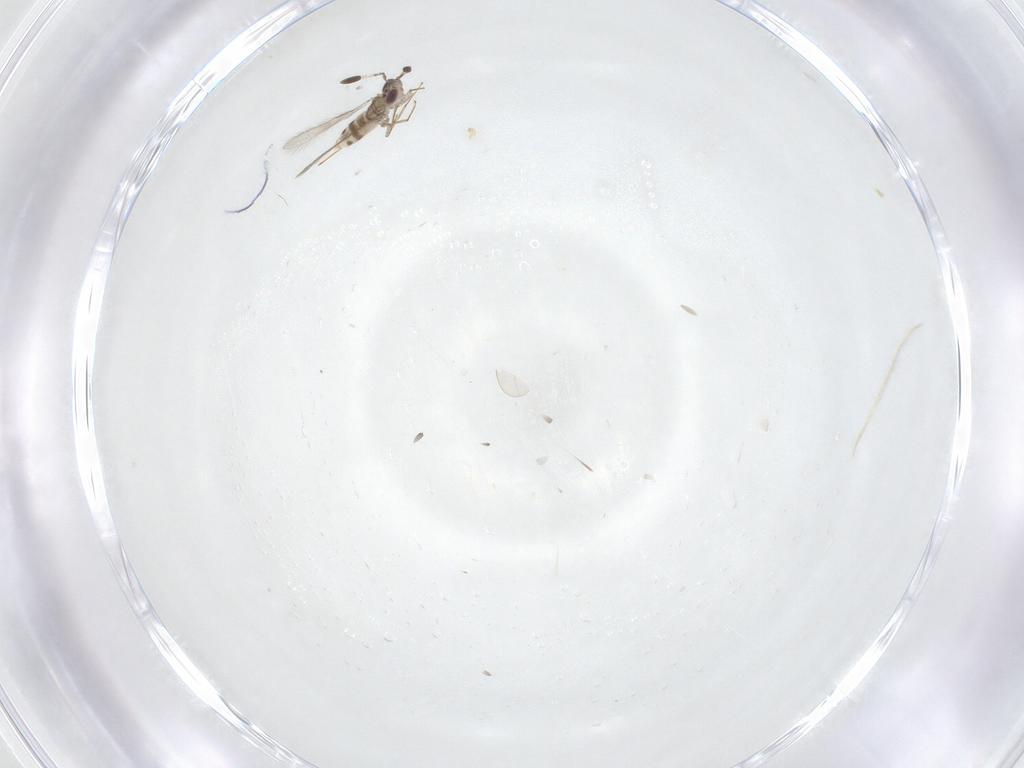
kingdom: Animalia
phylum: Arthropoda
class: Insecta
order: Hymenoptera
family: Mymaridae
